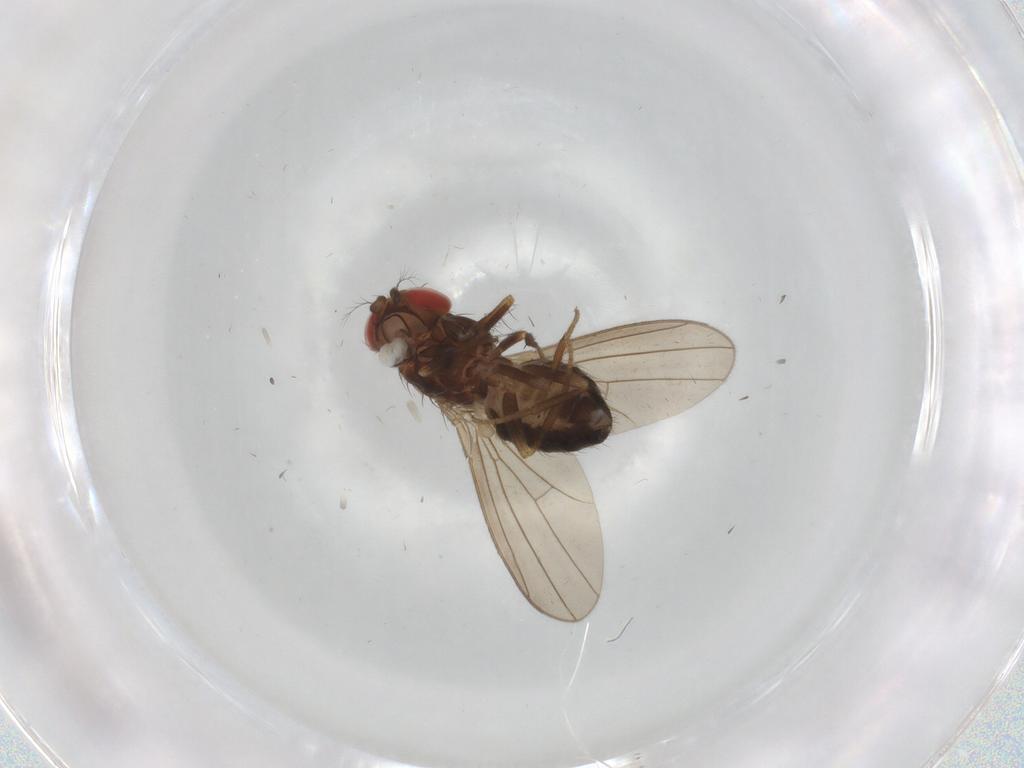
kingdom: Animalia
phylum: Arthropoda
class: Insecta
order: Diptera
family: Drosophilidae
